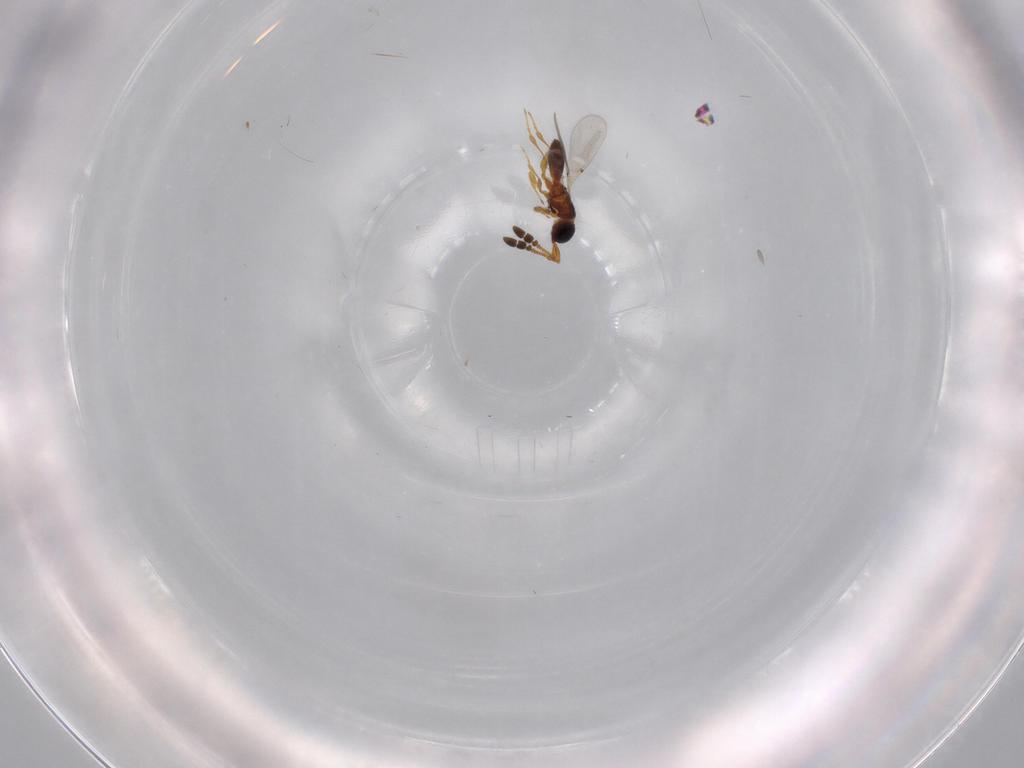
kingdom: Animalia
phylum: Arthropoda
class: Insecta
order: Hymenoptera
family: Diapriidae
